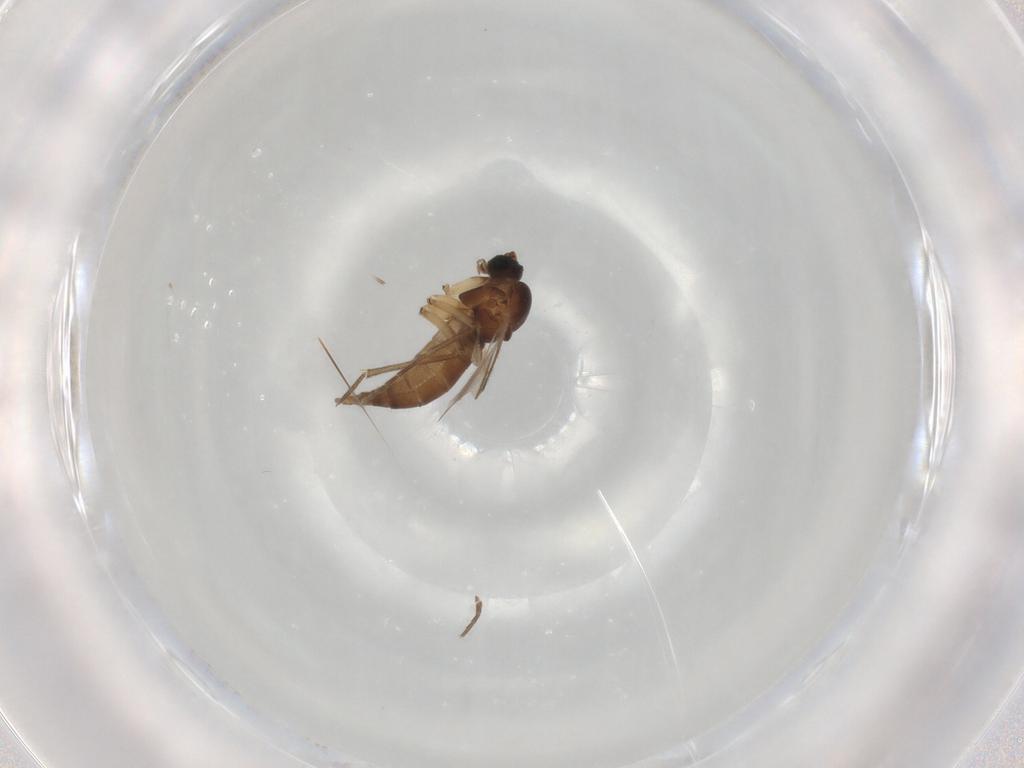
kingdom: Animalia
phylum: Arthropoda
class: Insecta
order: Diptera
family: Sciaridae
